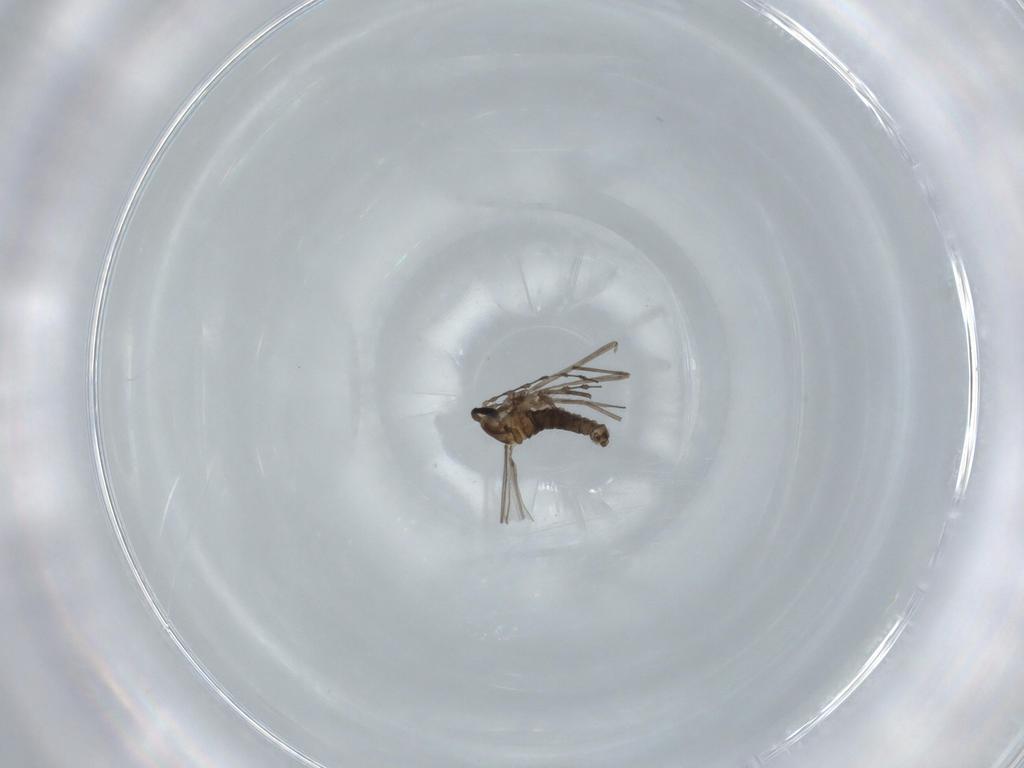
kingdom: Animalia
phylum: Arthropoda
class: Insecta
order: Diptera
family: Cecidomyiidae
